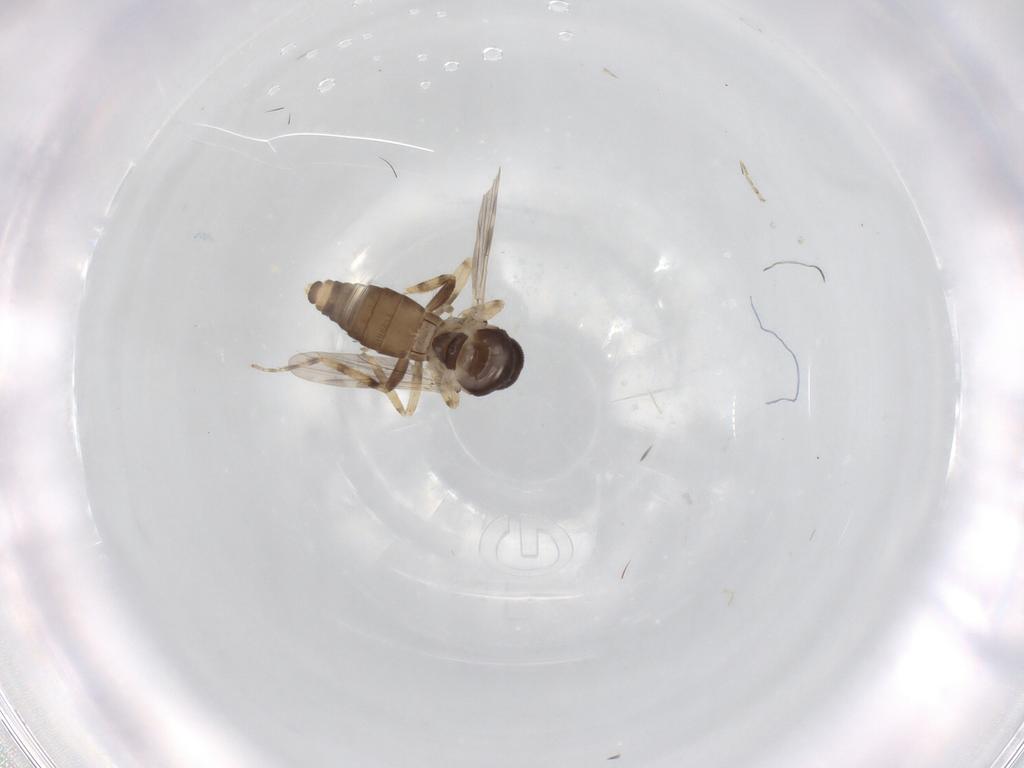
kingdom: Animalia
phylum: Arthropoda
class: Insecta
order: Diptera
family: Ceratopogonidae
